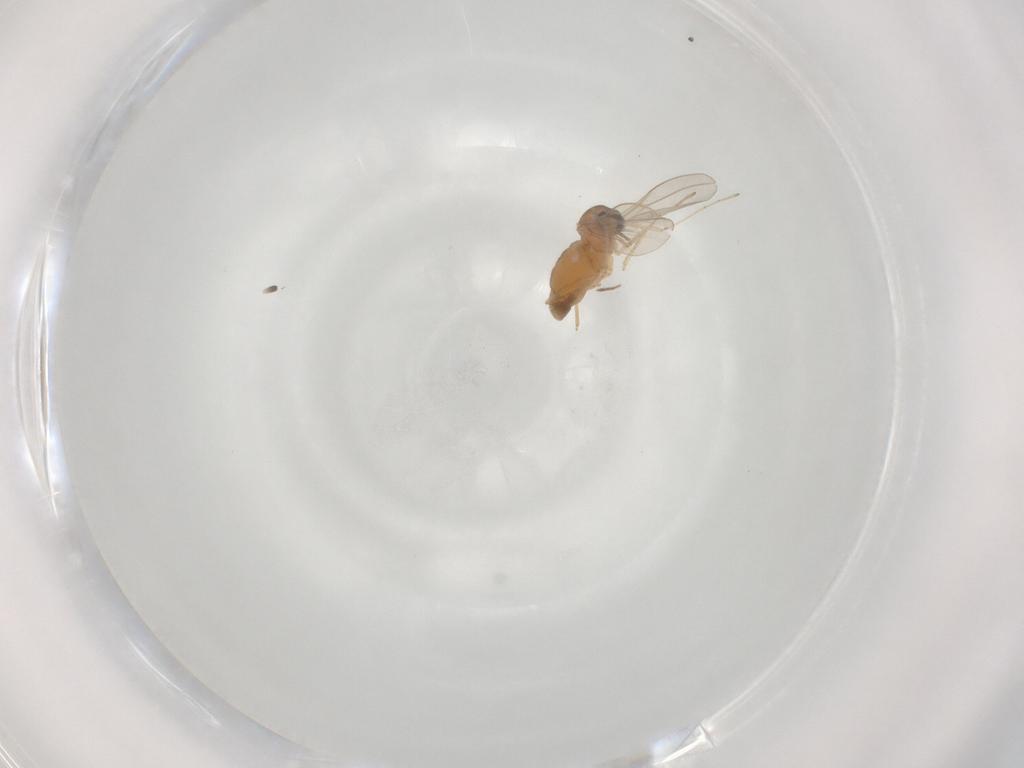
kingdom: Animalia
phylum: Arthropoda
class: Insecta
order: Diptera
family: Cecidomyiidae
